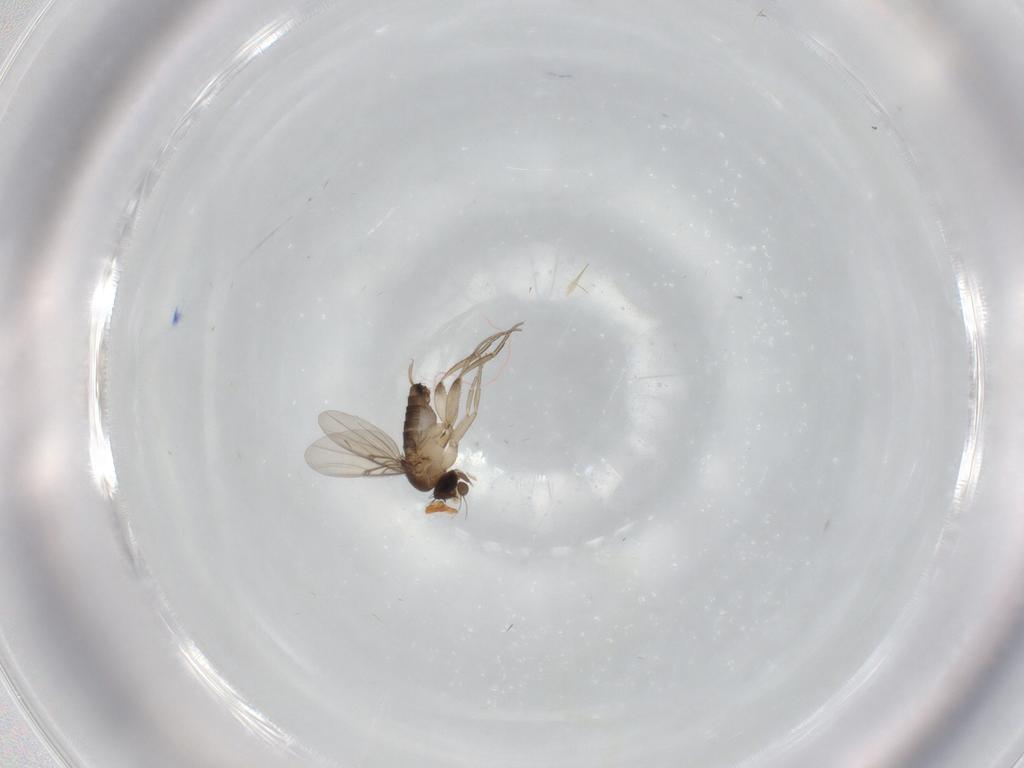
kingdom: Animalia
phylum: Arthropoda
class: Insecta
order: Diptera
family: Phoridae
